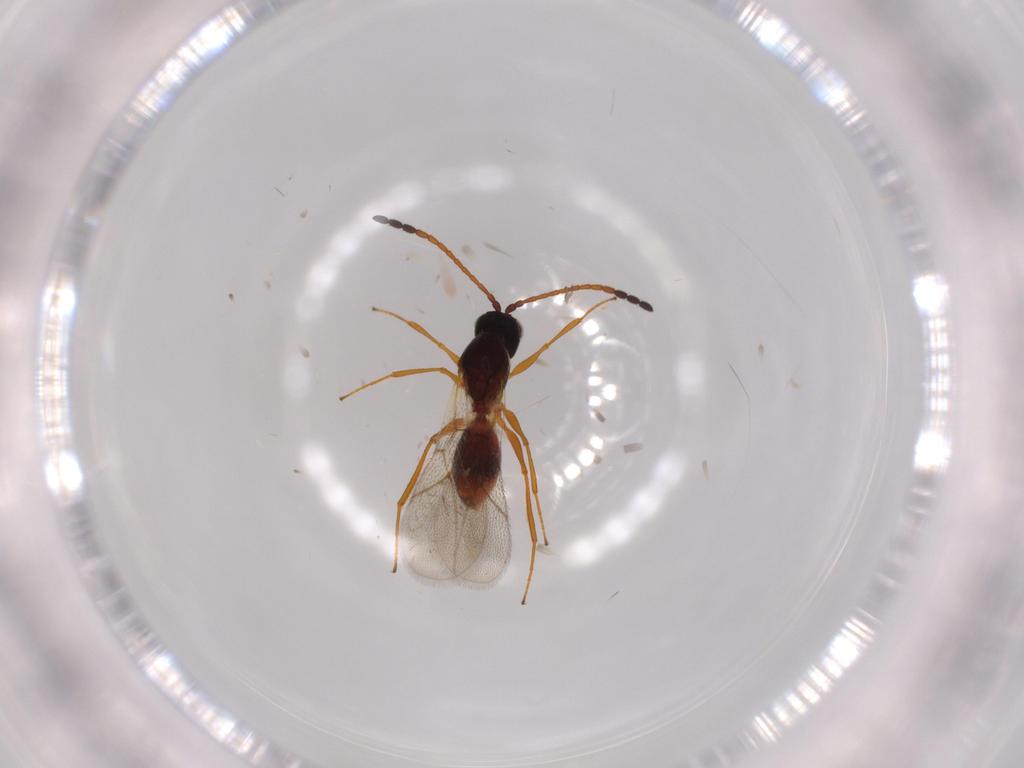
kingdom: Animalia
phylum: Arthropoda
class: Insecta
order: Hymenoptera
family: Figitidae
